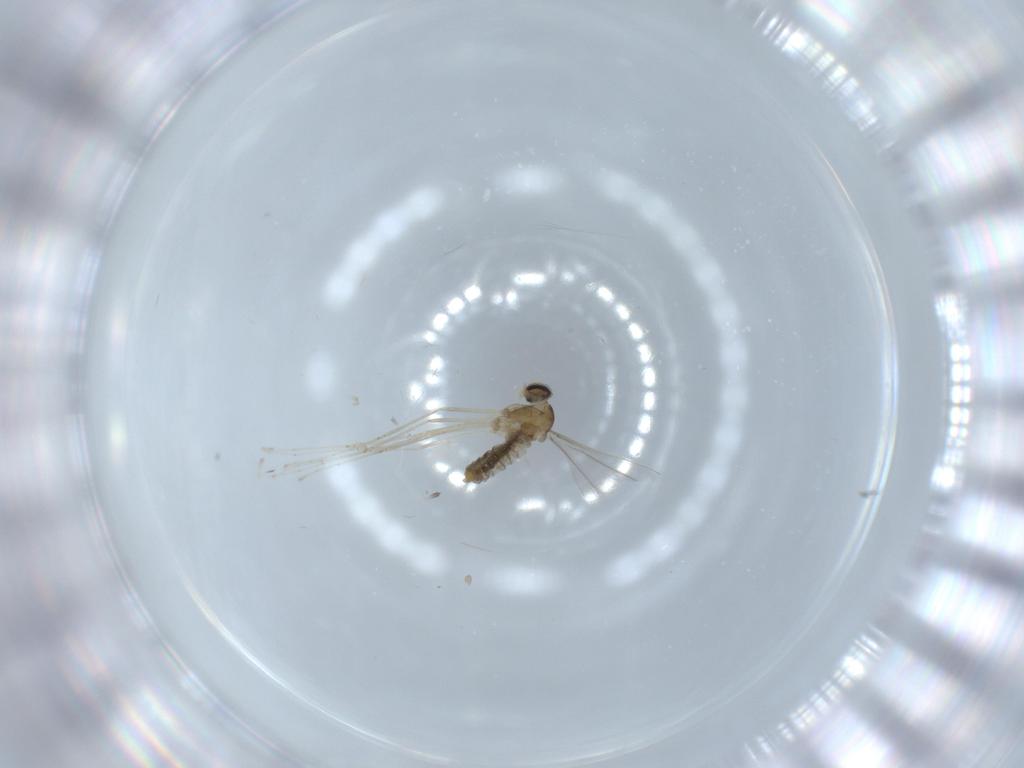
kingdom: Animalia
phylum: Arthropoda
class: Insecta
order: Diptera
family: Cecidomyiidae
